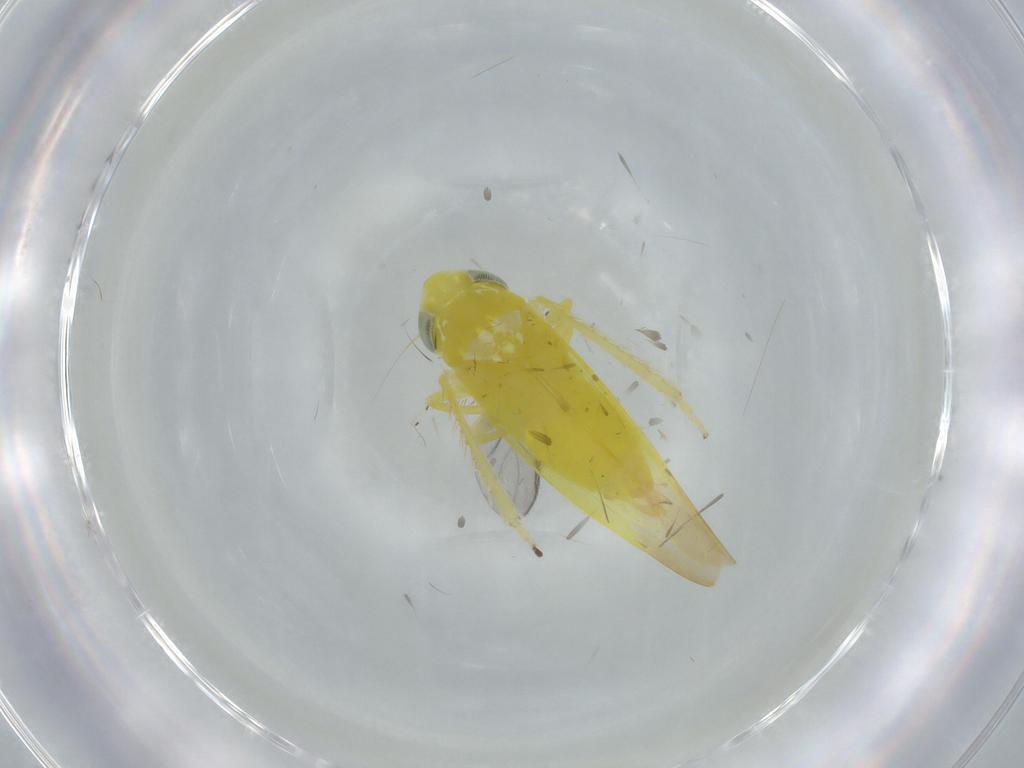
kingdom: Animalia
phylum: Arthropoda
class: Insecta
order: Hemiptera
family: Cicadellidae
